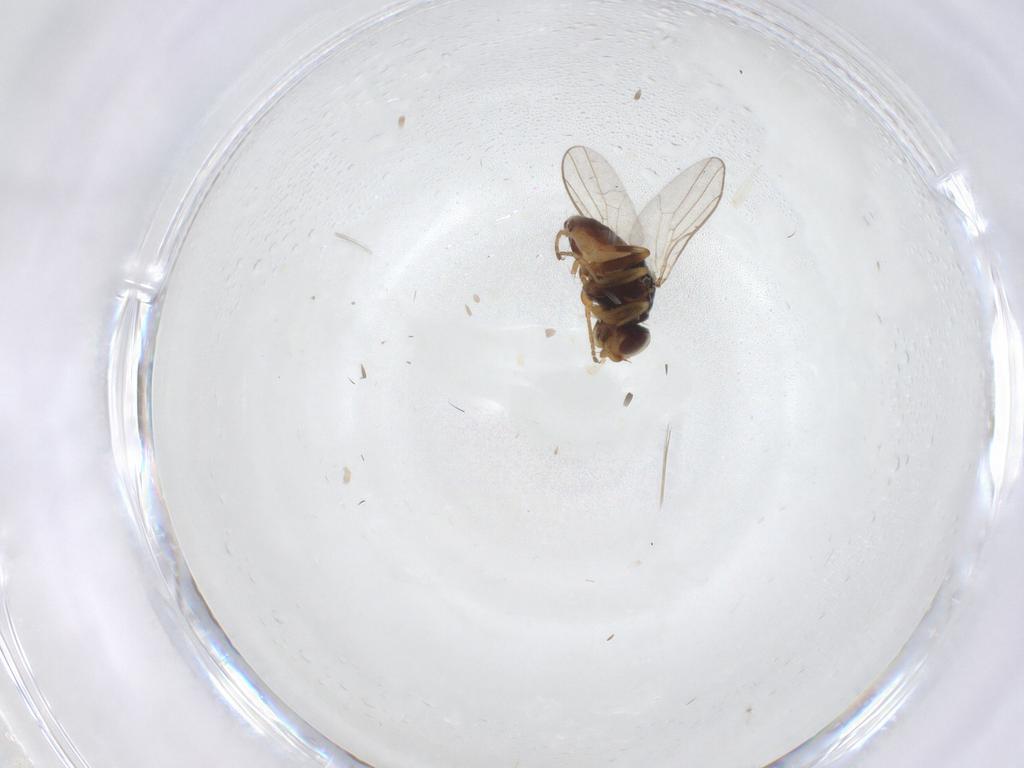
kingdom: Animalia
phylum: Arthropoda
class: Insecta
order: Diptera
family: Chloropidae
